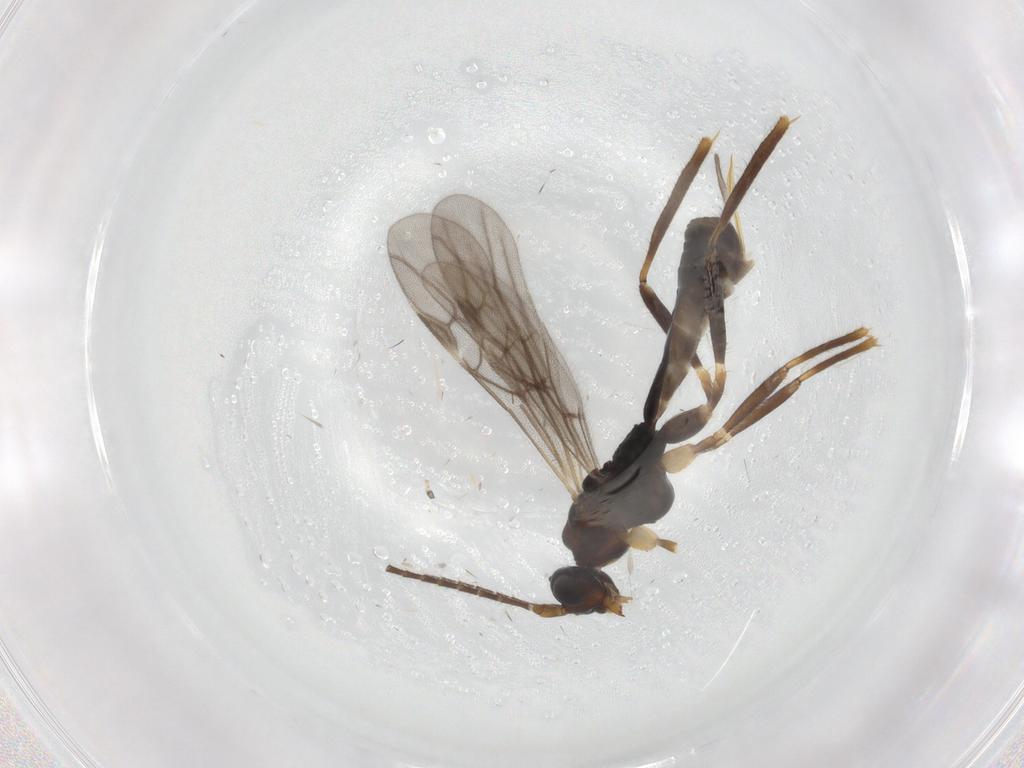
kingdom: Animalia
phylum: Arthropoda
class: Insecta
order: Hymenoptera
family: Braconidae
